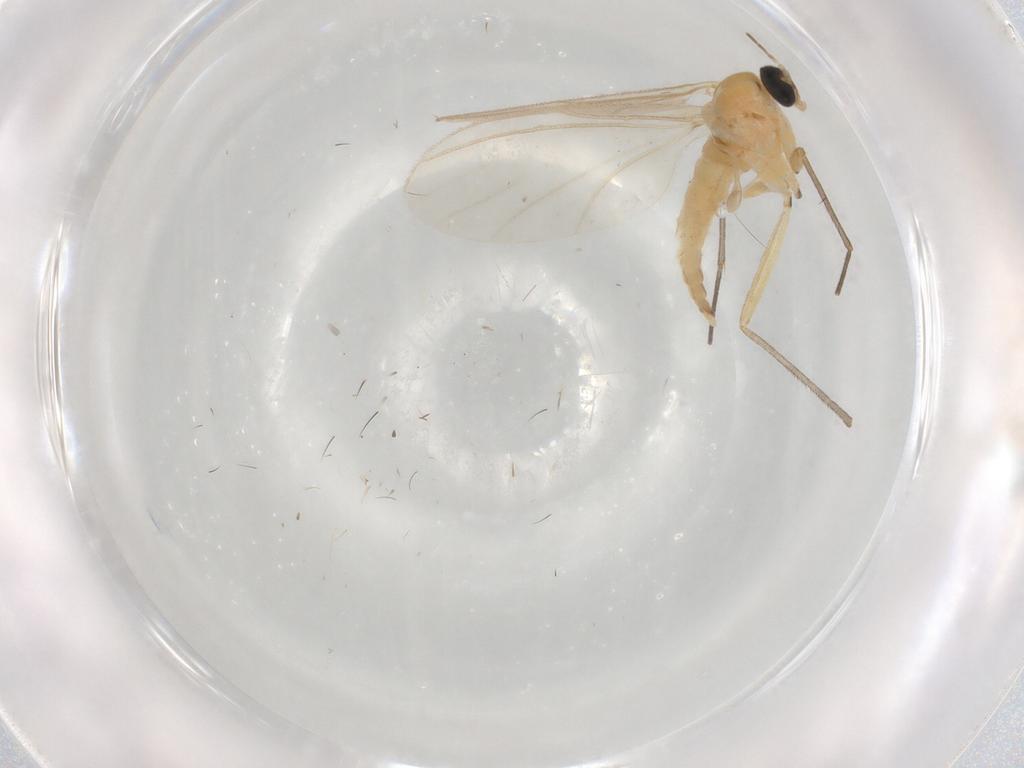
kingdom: Animalia
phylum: Arthropoda
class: Insecta
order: Diptera
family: Sciaridae
